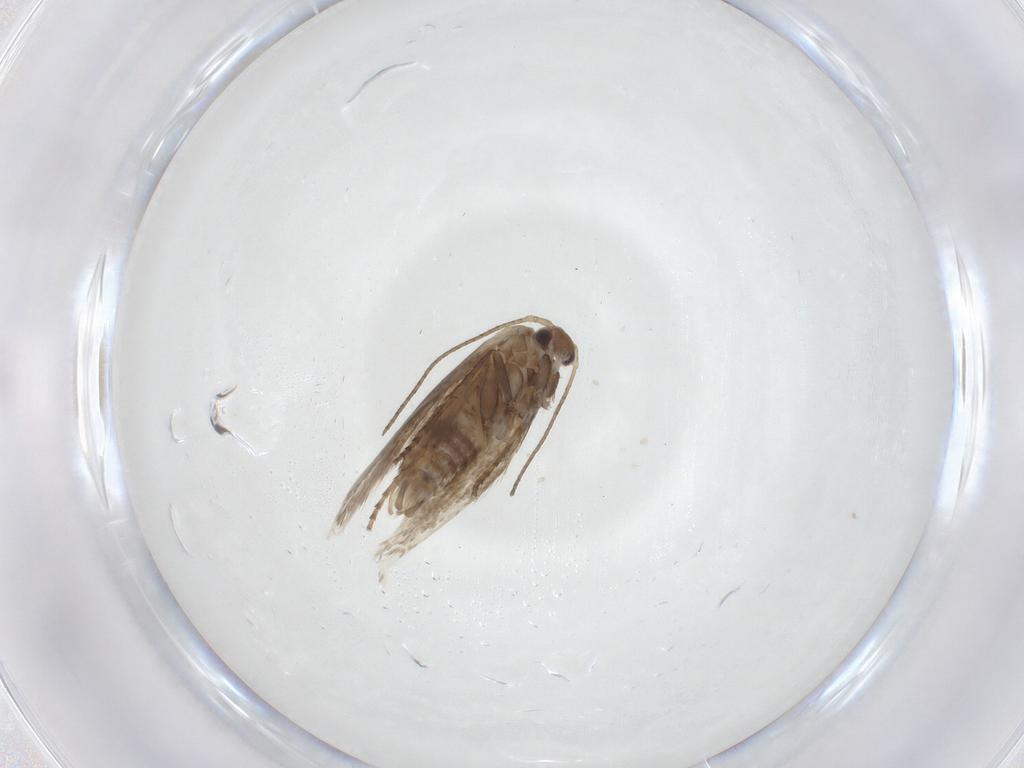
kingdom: Animalia
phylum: Arthropoda
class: Insecta
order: Lepidoptera
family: Bucculatricidae
